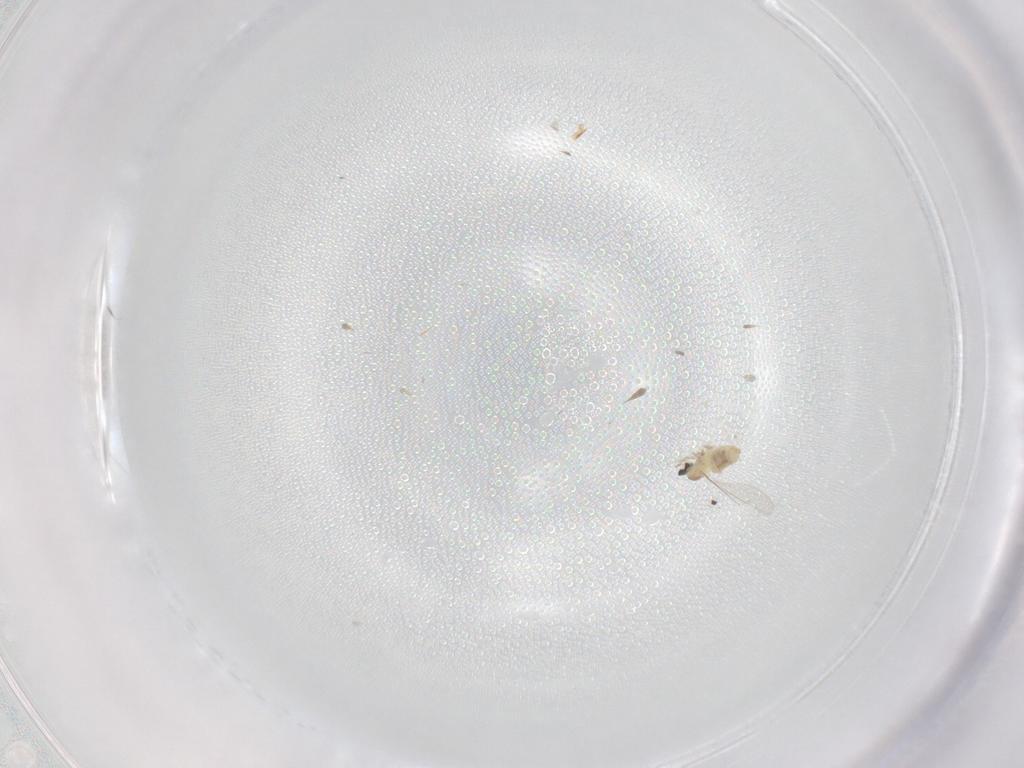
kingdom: Animalia
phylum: Arthropoda
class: Insecta
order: Diptera
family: Cecidomyiidae
